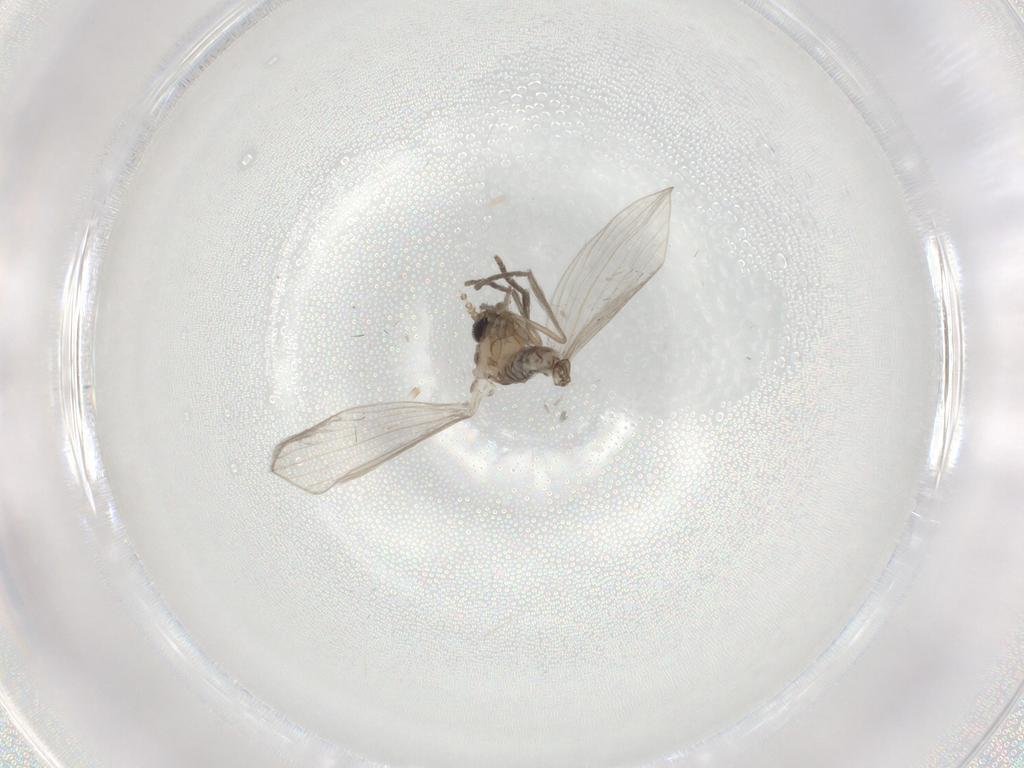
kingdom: Animalia
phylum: Arthropoda
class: Insecta
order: Diptera
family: Psychodidae
